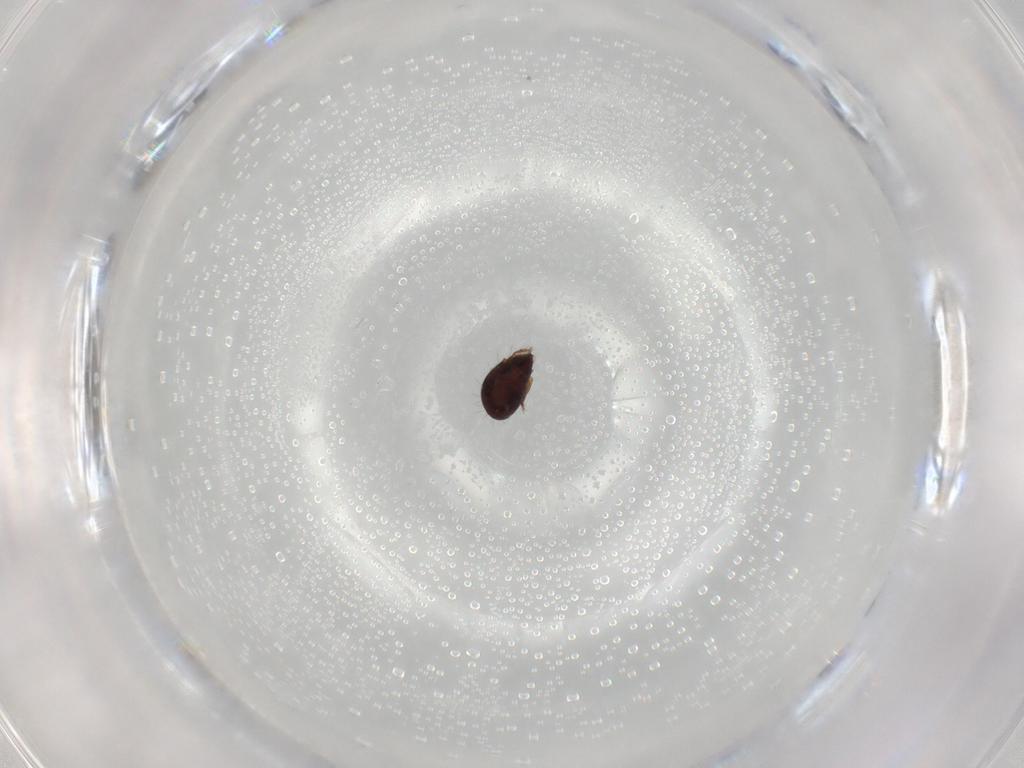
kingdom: Animalia
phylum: Arthropoda
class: Arachnida
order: Sarcoptiformes
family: Humerobatidae
